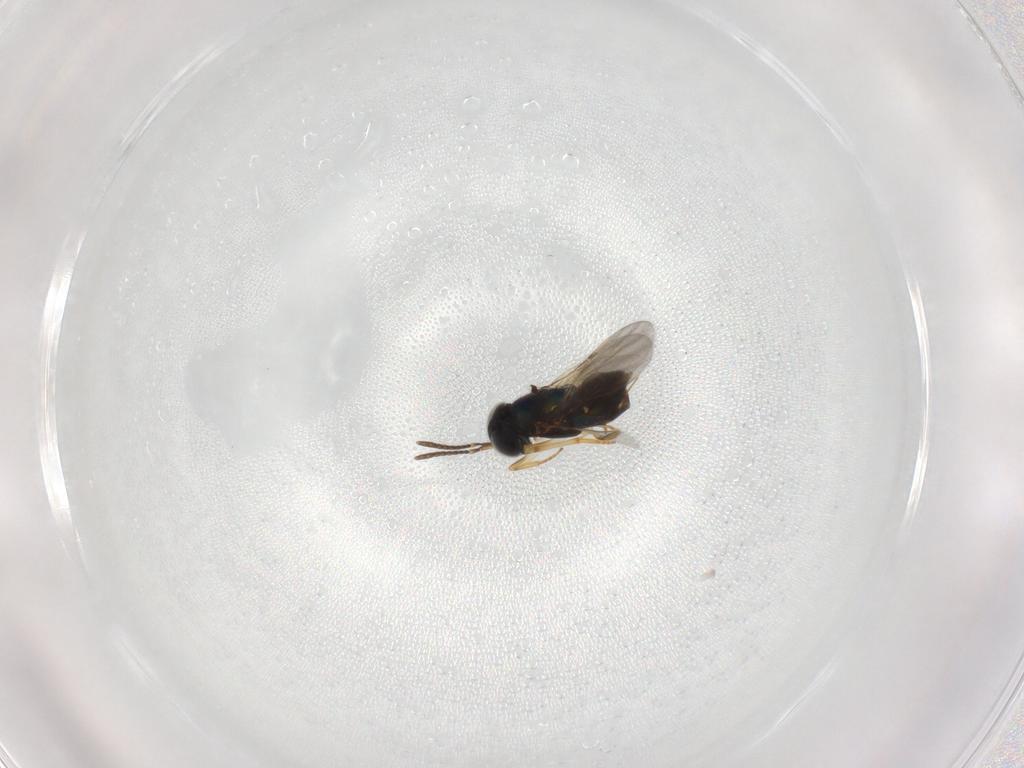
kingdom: Animalia
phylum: Arthropoda
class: Insecta
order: Hymenoptera
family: Encyrtidae
